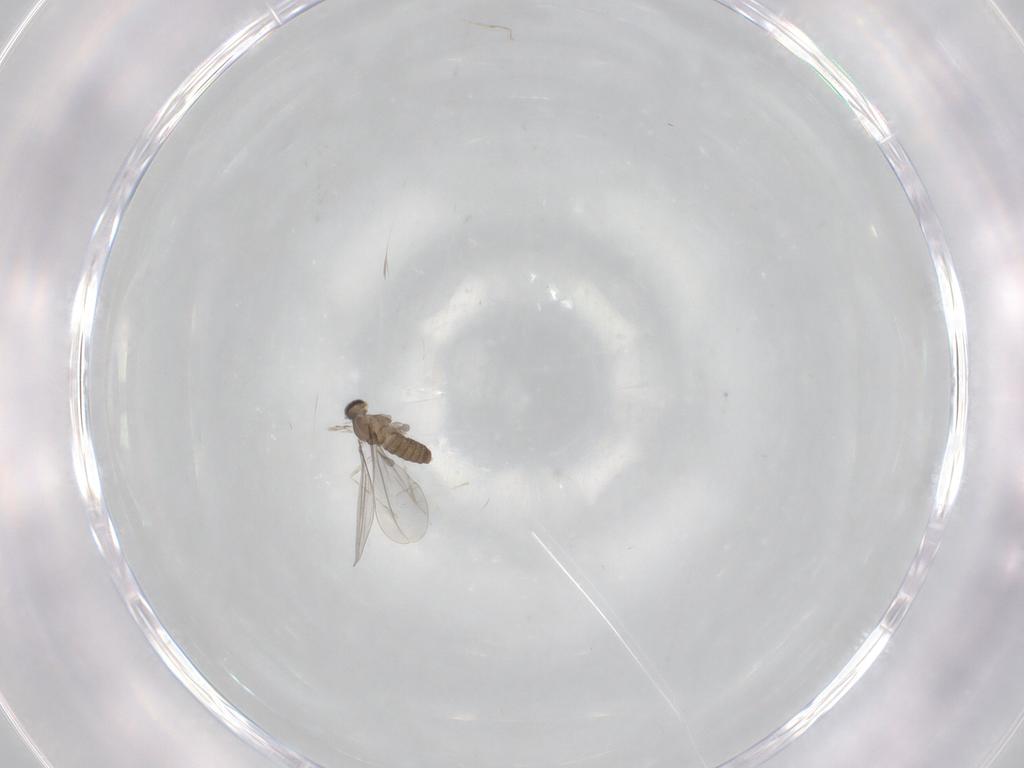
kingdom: Animalia
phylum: Arthropoda
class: Insecta
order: Diptera
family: Cecidomyiidae
